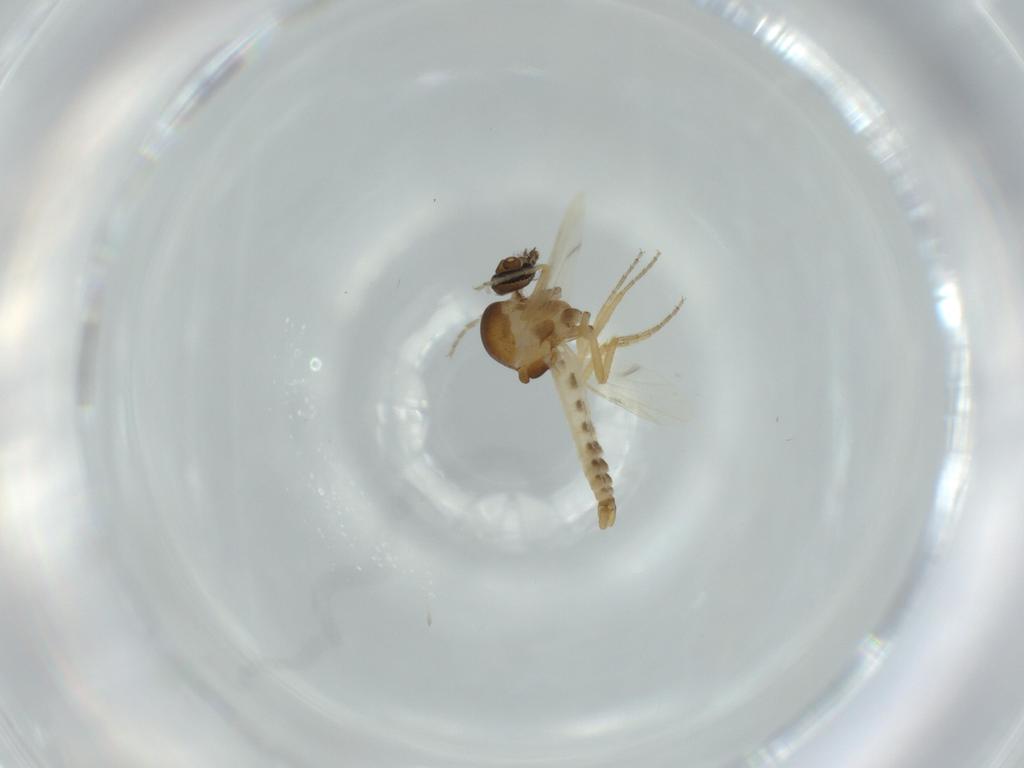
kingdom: Animalia
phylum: Arthropoda
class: Insecta
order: Diptera
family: Ceratopogonidae
